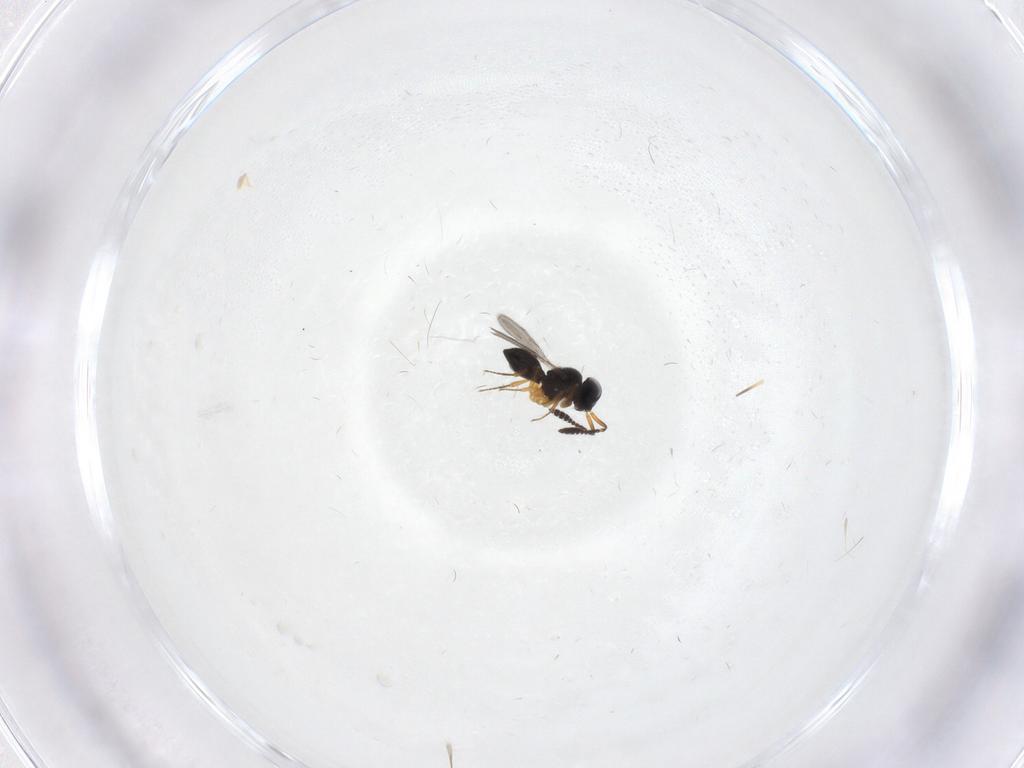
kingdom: Animalia
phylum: Arthropoda
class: Insecta
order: Hymenoptera
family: Scelionidae
